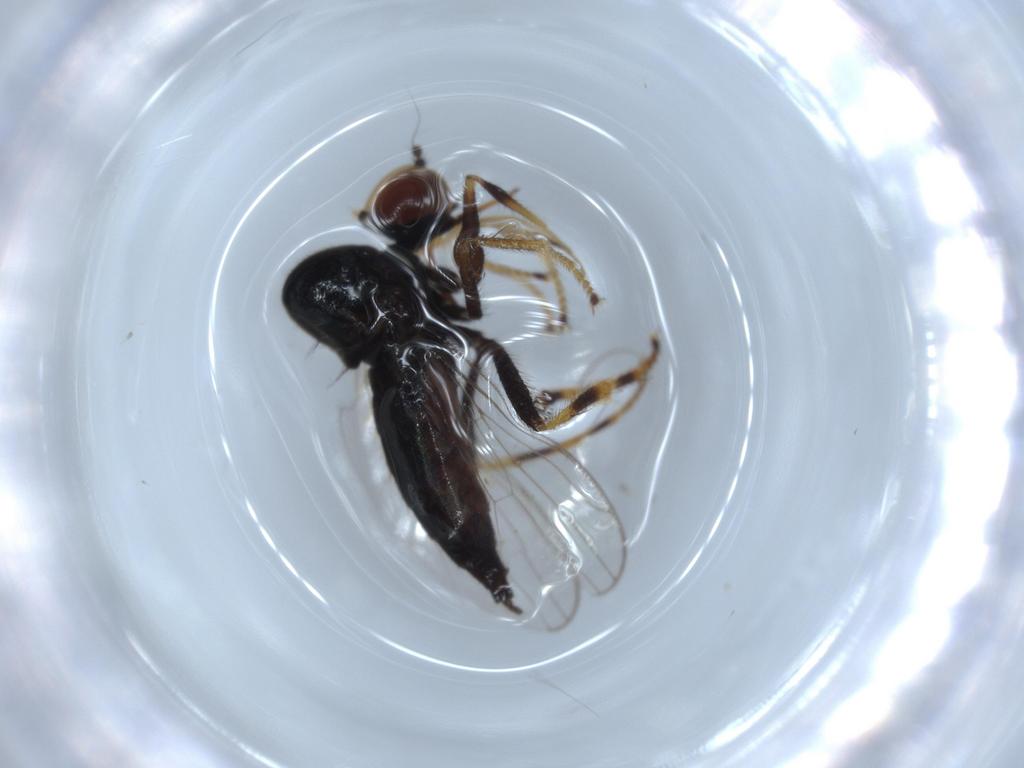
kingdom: Animalia
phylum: Arthropoda
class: Insecta
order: Diptera
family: Hybotidae
